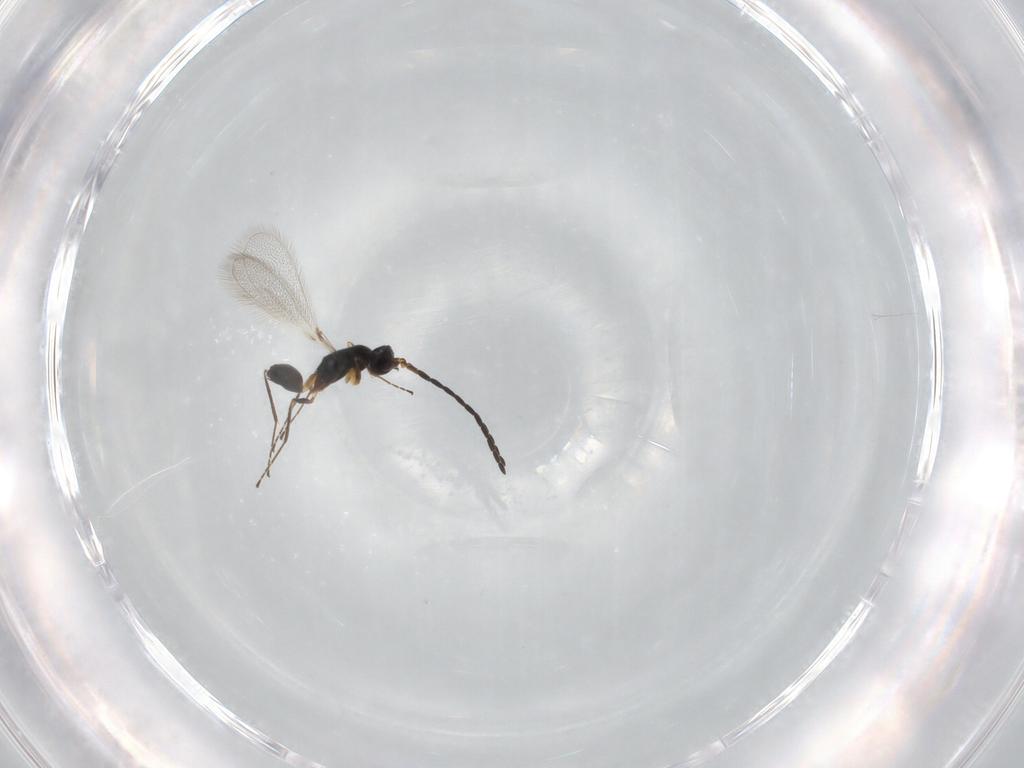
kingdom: Animalia
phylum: Arthropoda
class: Insecta
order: Hymenoptera
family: Mymaridae
